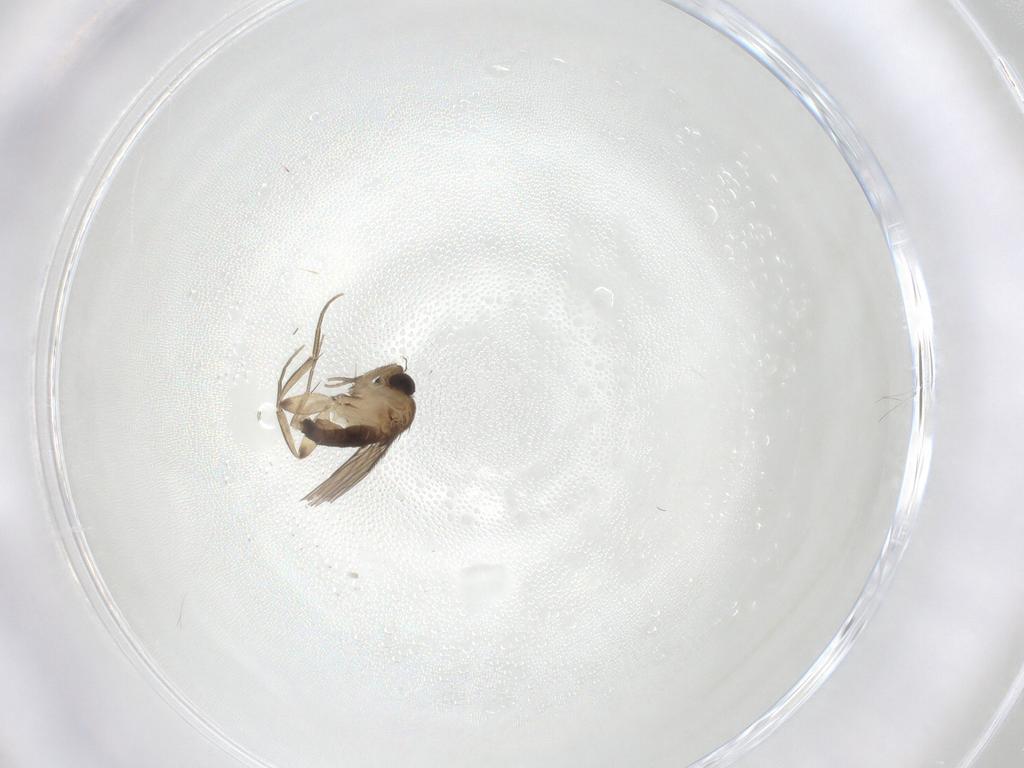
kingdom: Animalia
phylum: Arthropoda
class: Insecta
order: Diptera
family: Phoridae
